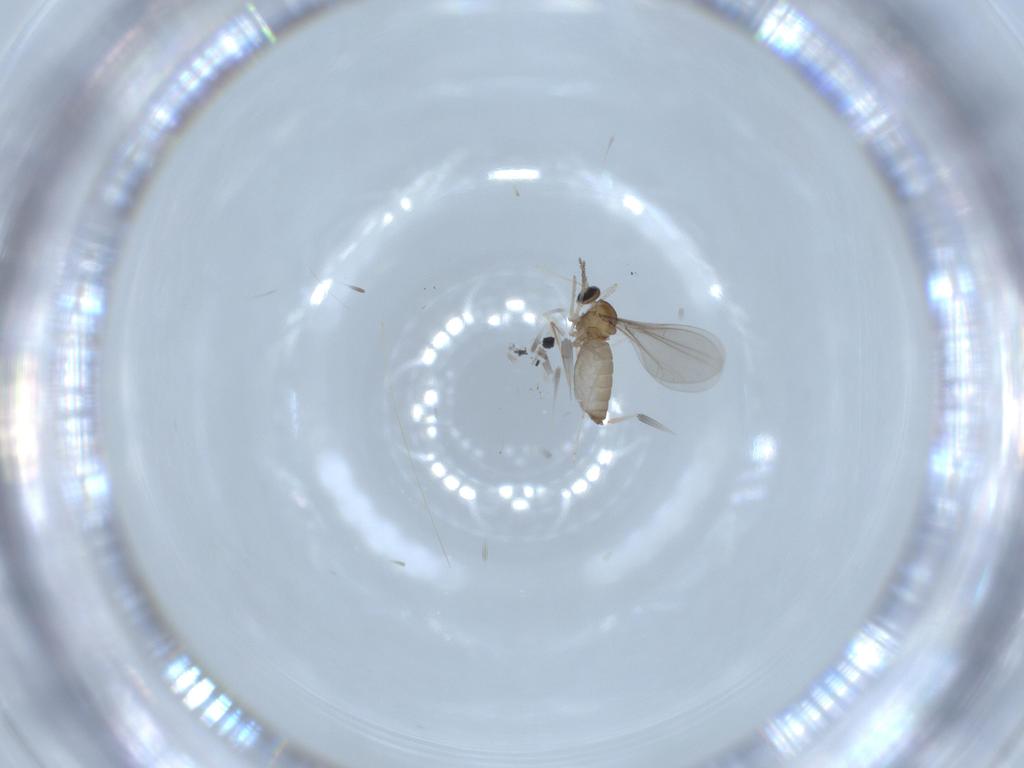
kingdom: Animalia
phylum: Arthropoda
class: Insecta
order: Diptera
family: Cecidomyiidae
